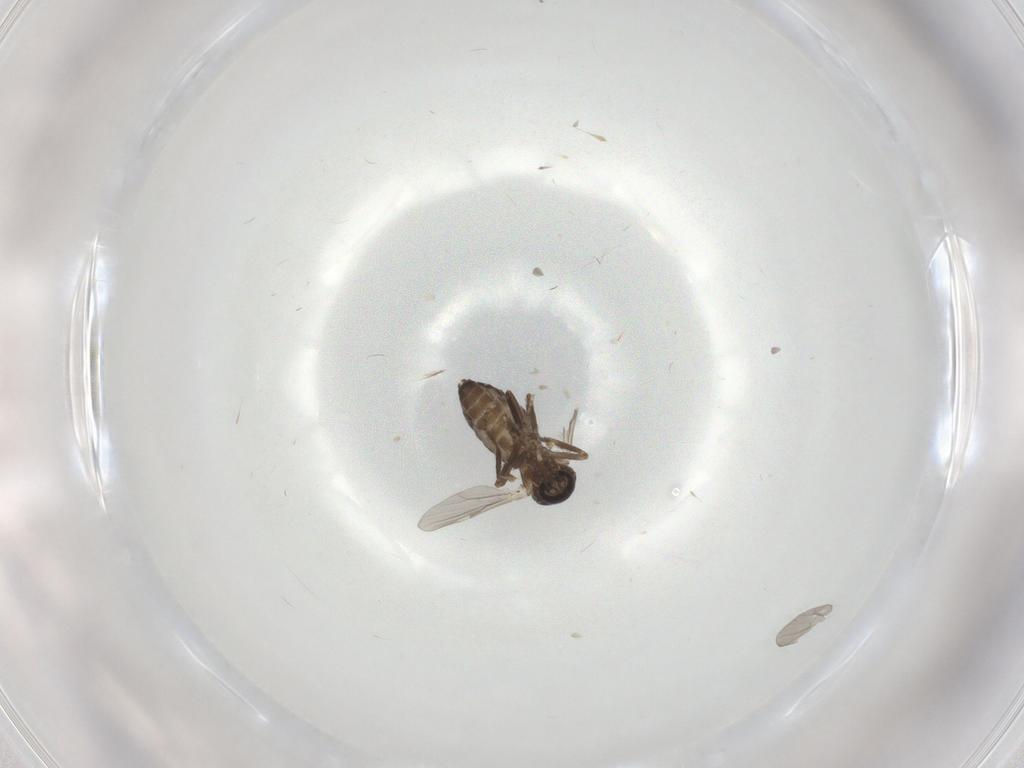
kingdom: Animalia
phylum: Arthropoda
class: Insecta
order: Diptera
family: Ceratopogonidae
